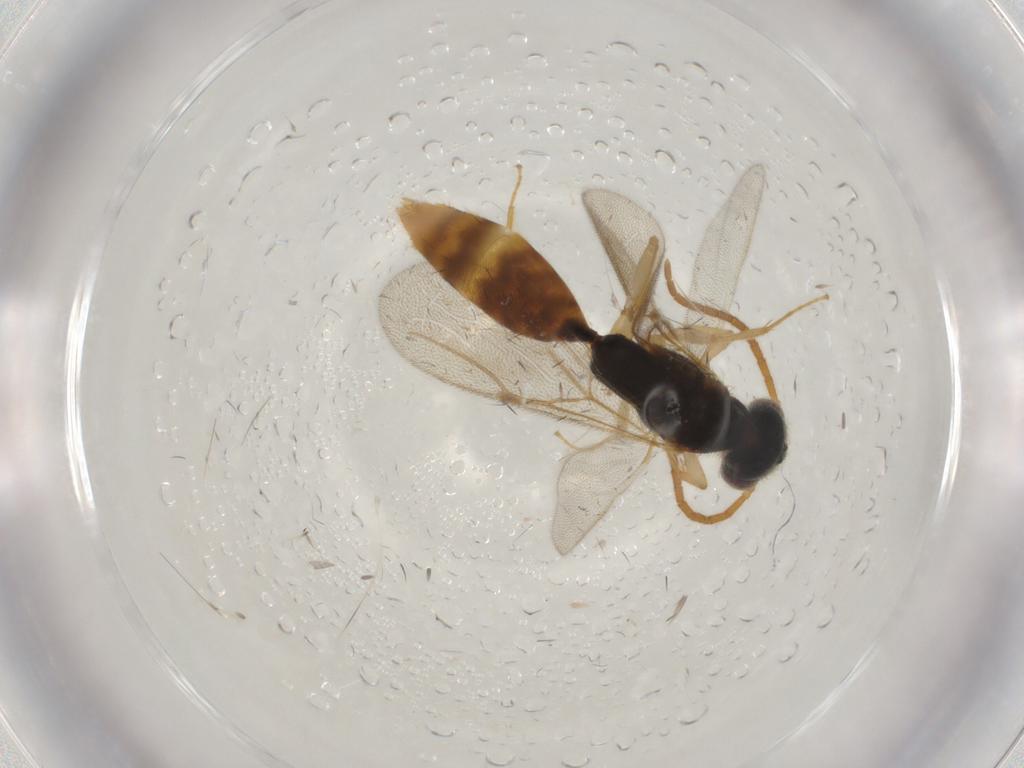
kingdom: Animalia
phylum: Arthropoda
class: Insecta
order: Hymenoptera
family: Bethylidae
